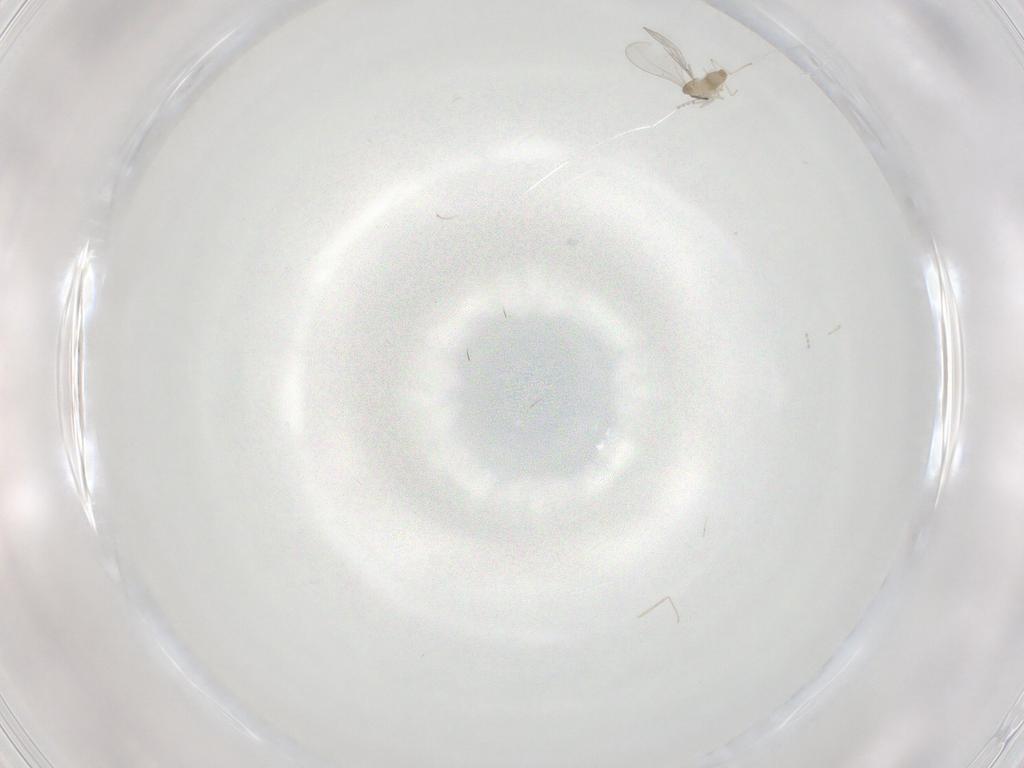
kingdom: Animalia
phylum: Arthropoda
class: Insecta
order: Diptera
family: Cecidomyiidae
